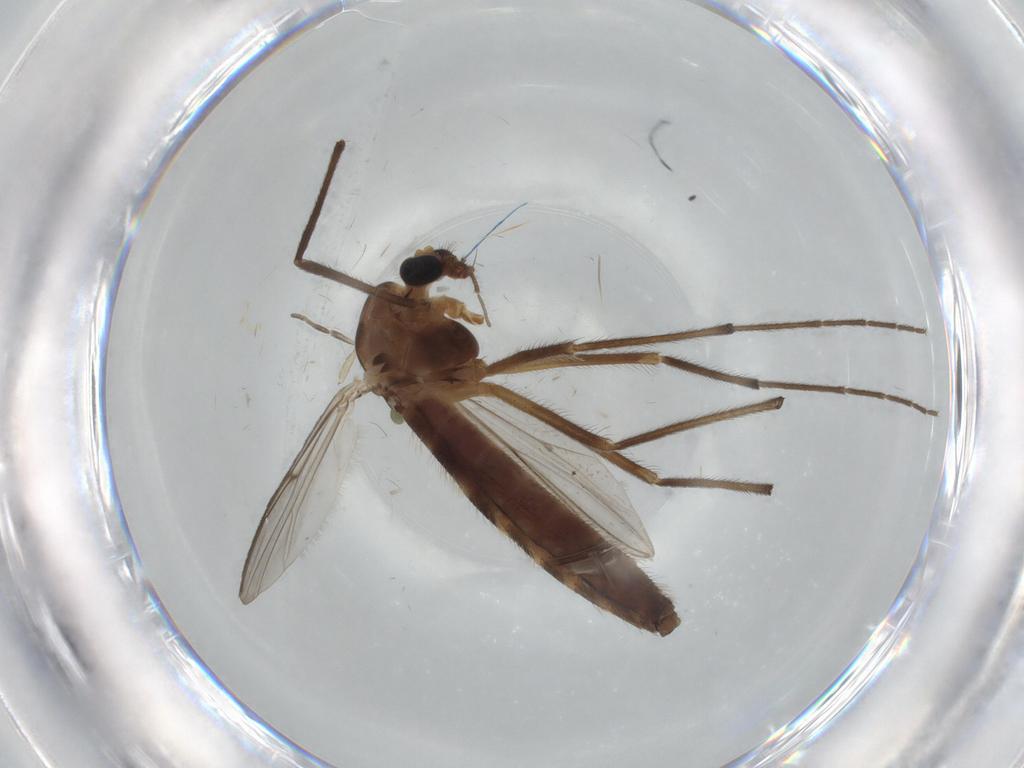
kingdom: Animalia
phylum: Arthropoda
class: Insecta
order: Diptera
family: Phoridae
